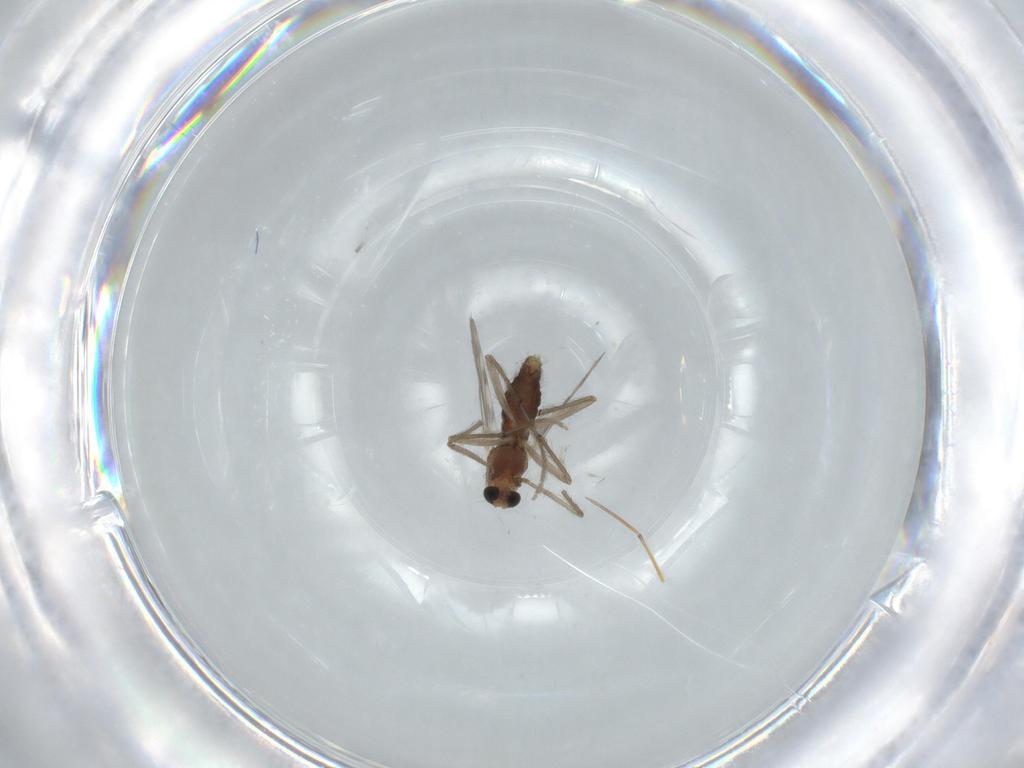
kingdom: Animalia
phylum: Arthropoda
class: Insecta
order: Diptera
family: Chironomidae
